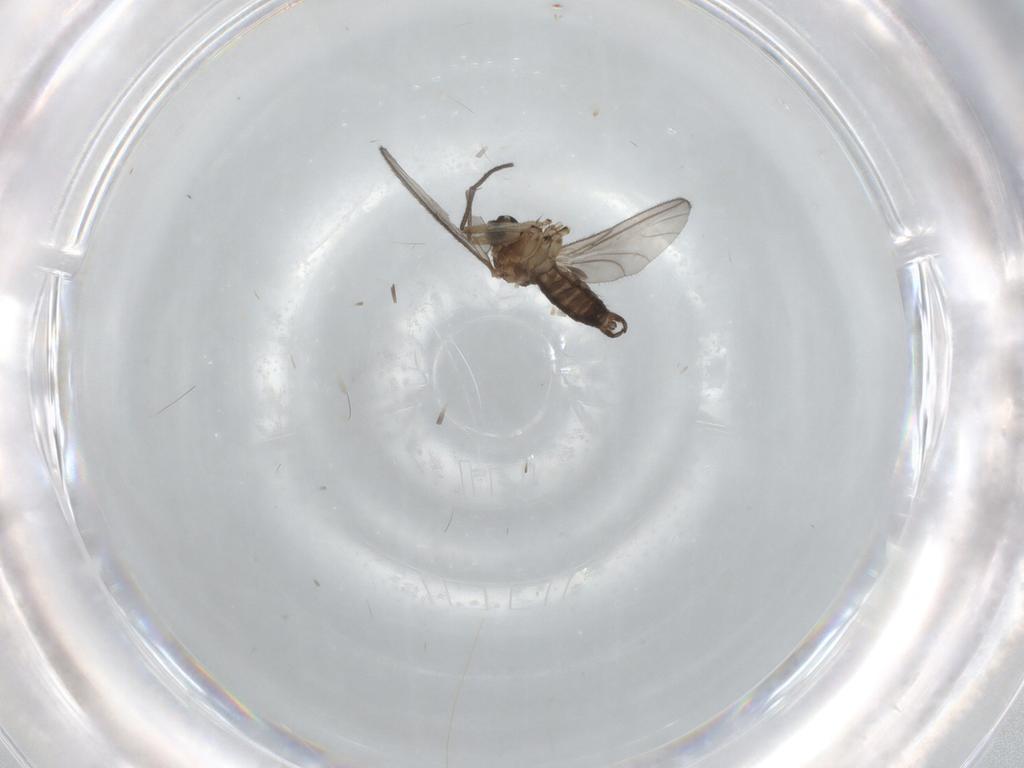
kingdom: Animalia
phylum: Arthropoda
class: Insecta
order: Diptera
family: Sciaridae
